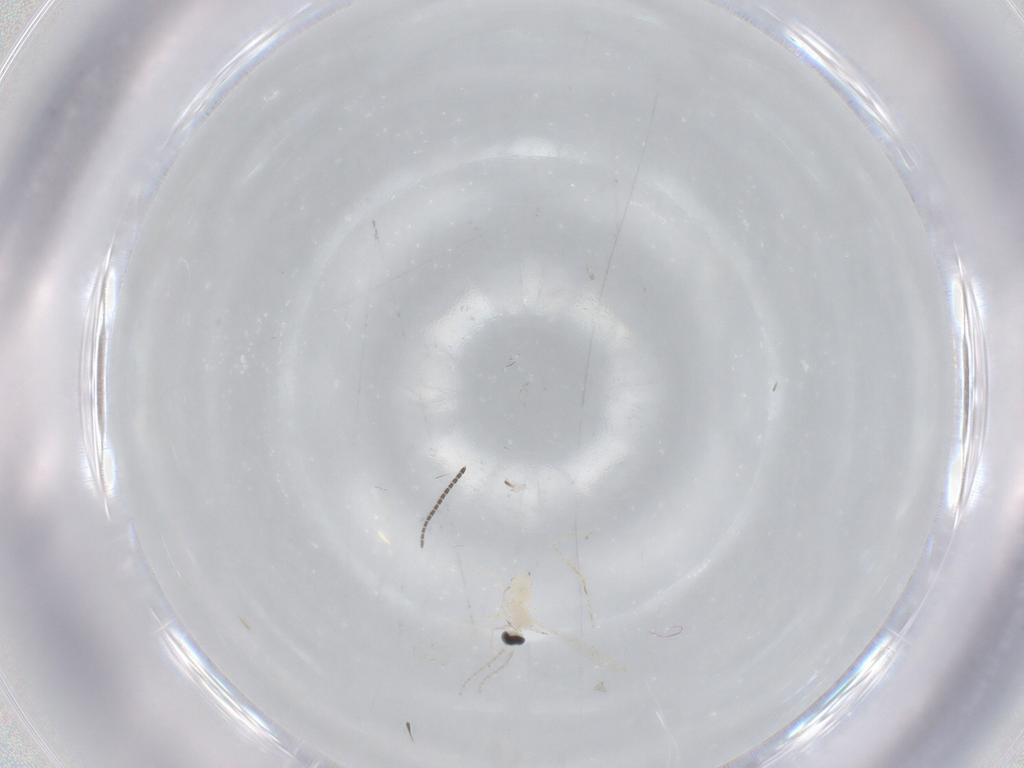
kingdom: Animalia
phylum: Arthropoda
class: Insecta
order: Diptera
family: Sciaridae
